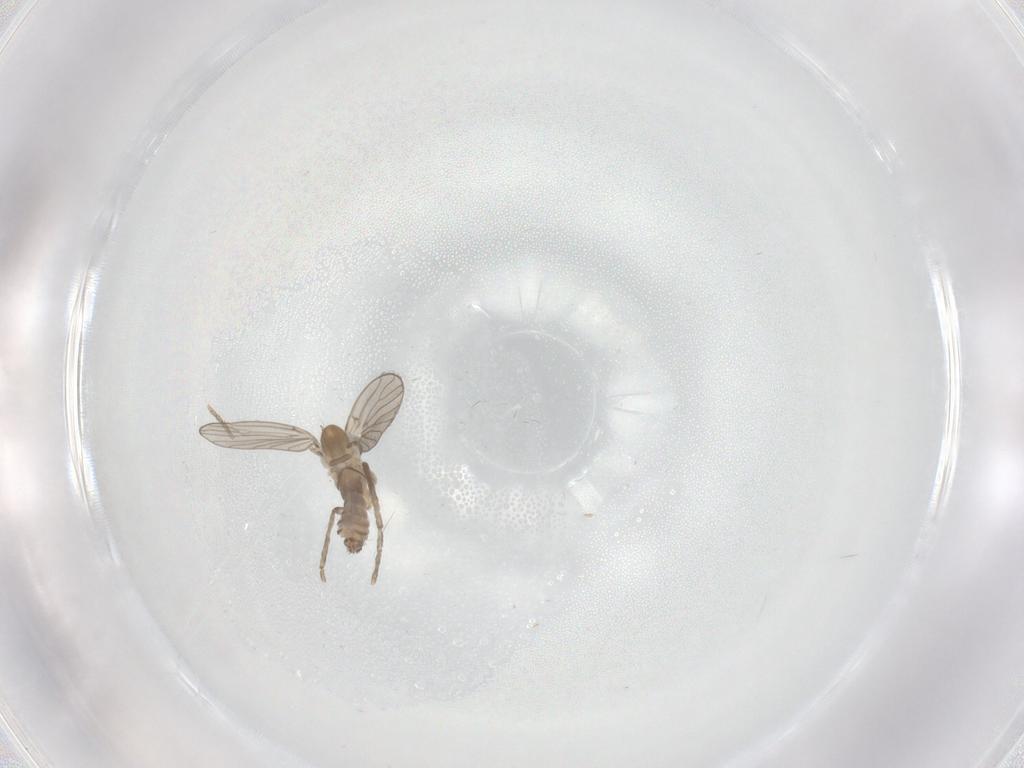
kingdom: Animalia
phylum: Arthropoda
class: Insecta
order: Diptera
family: Psychodidae
